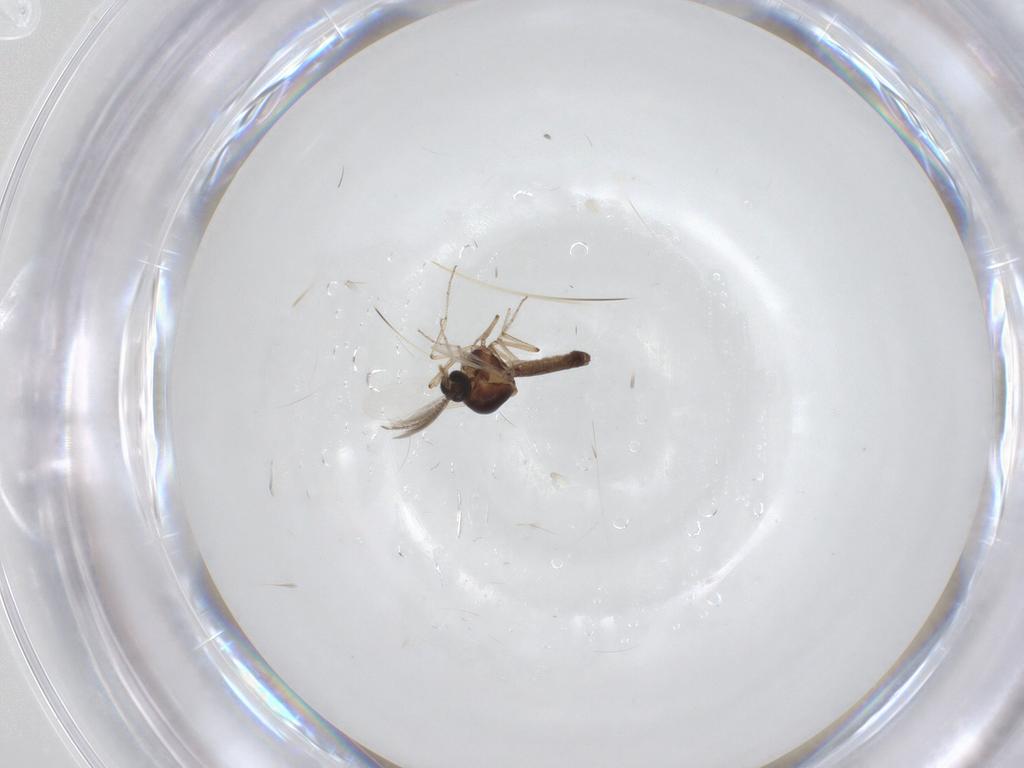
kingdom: Animalia
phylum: Arthropoda
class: Insecta
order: Diptera
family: Ceratopogonidae
